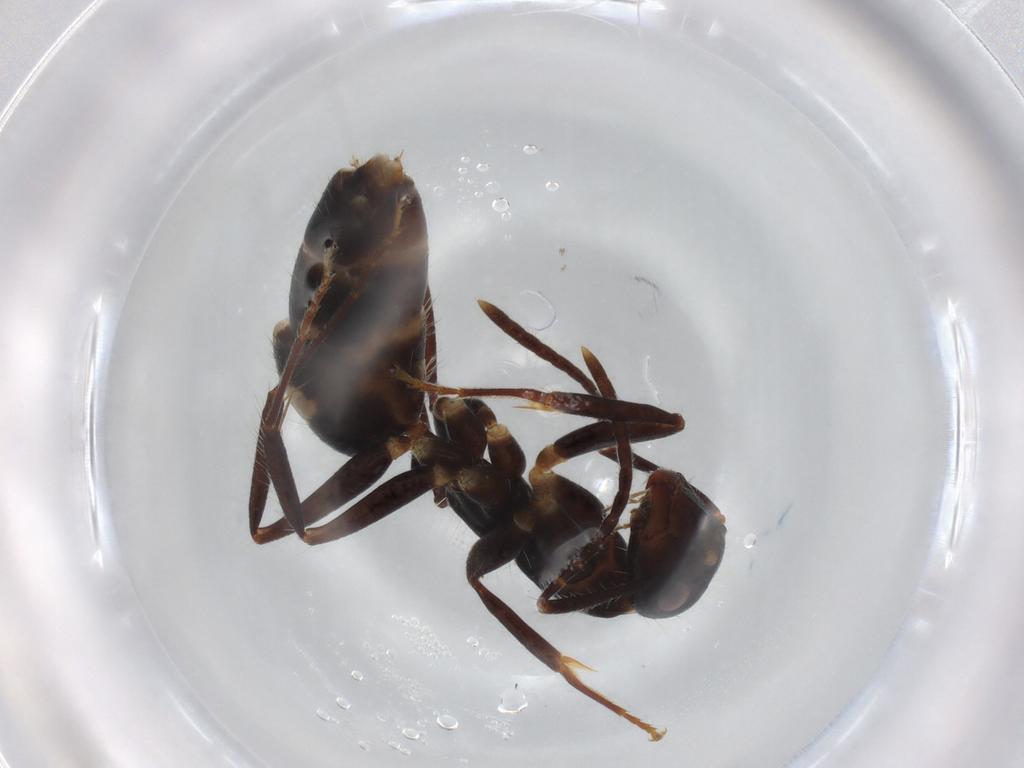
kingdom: Animalia
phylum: Arthropoda
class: Insecta
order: Hymenoptera
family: Formicidae
